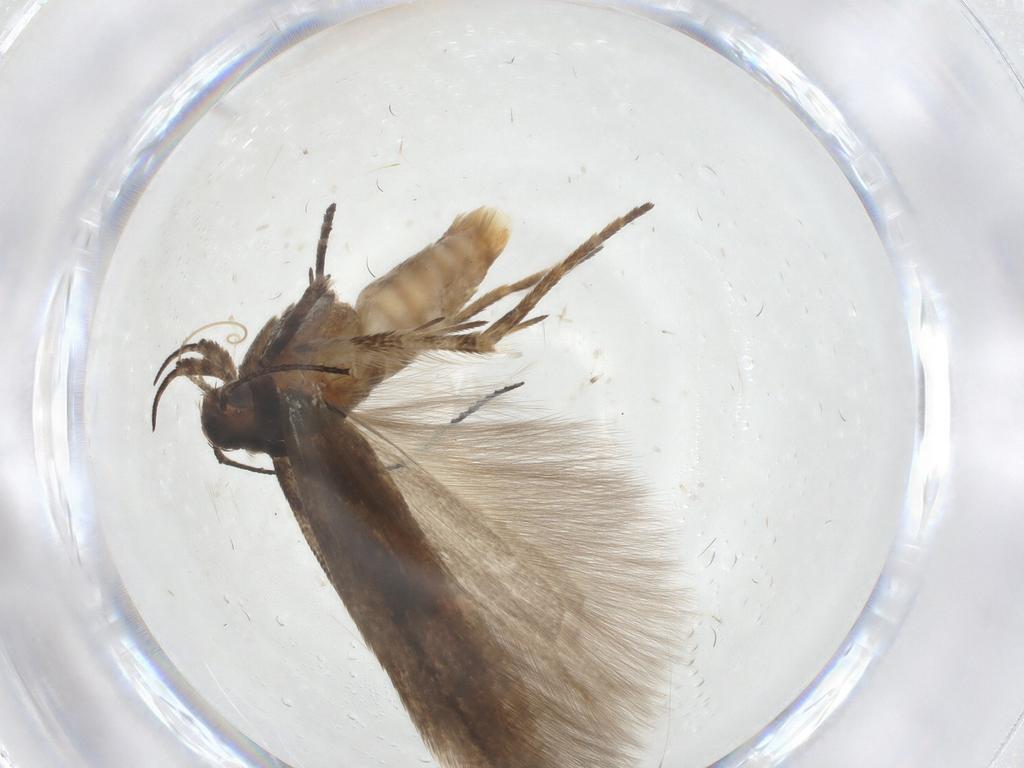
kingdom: Animalia
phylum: Arthropoda
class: Insecta
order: Lepidoptera
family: Gelechiidae
